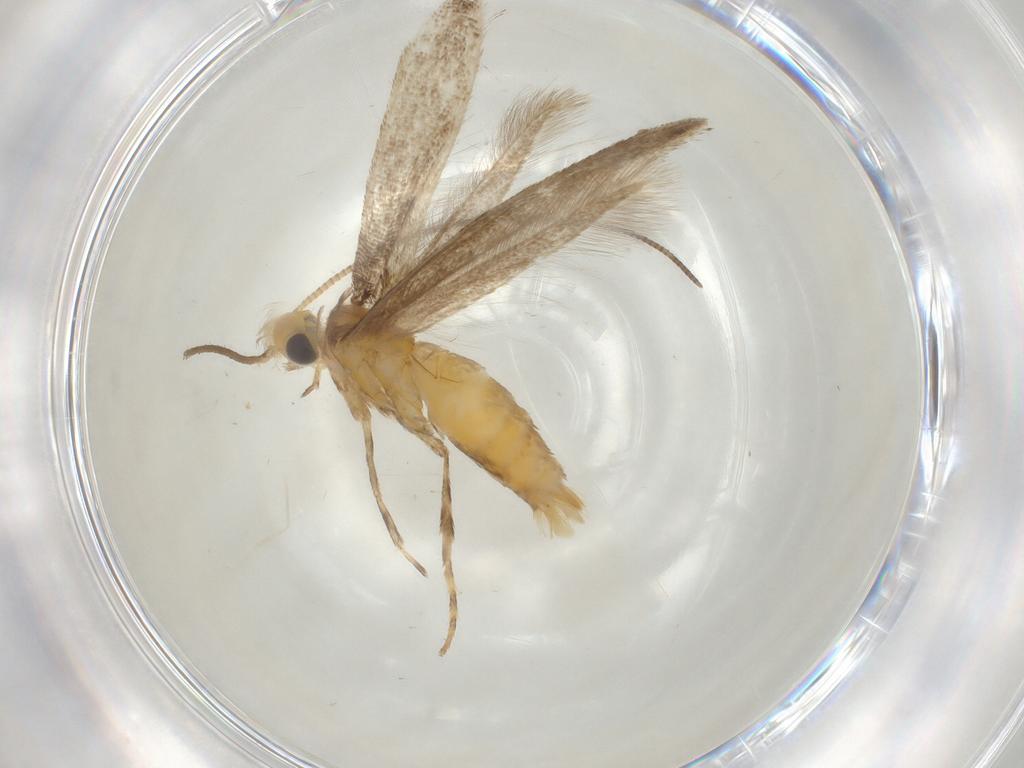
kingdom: Animalia
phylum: Arthropoda
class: Insecta
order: Lepidoptera
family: Gracillariidae
